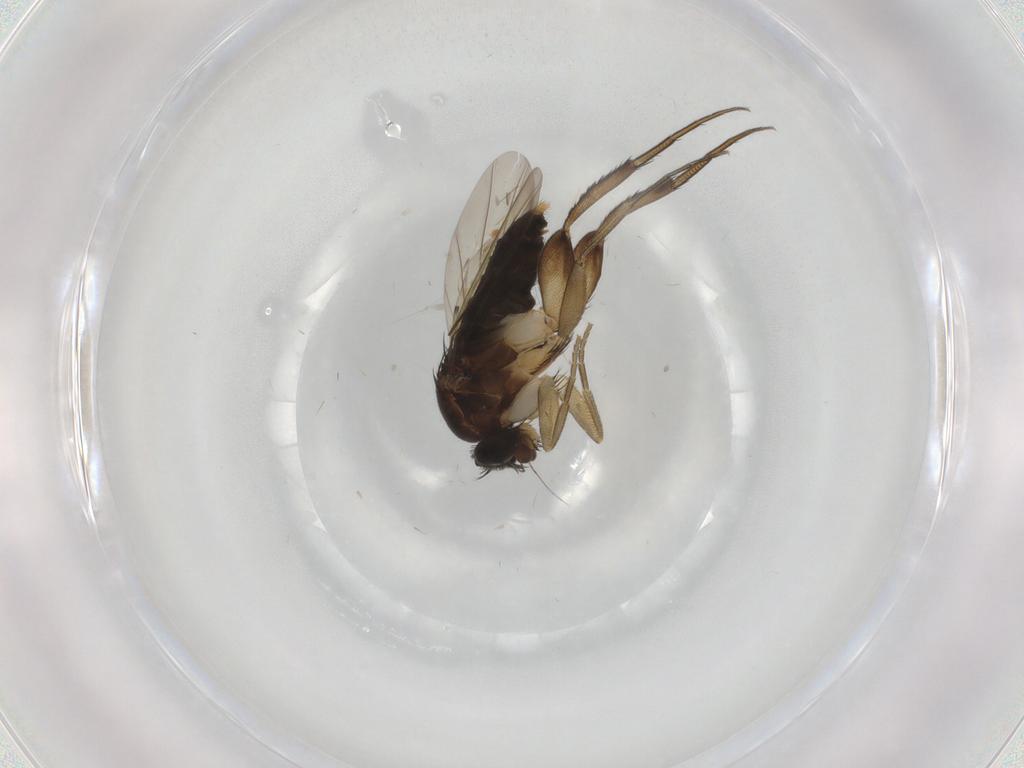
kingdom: Animalia
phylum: Arthropoda
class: Insecta
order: Diptera
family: Phoridae
